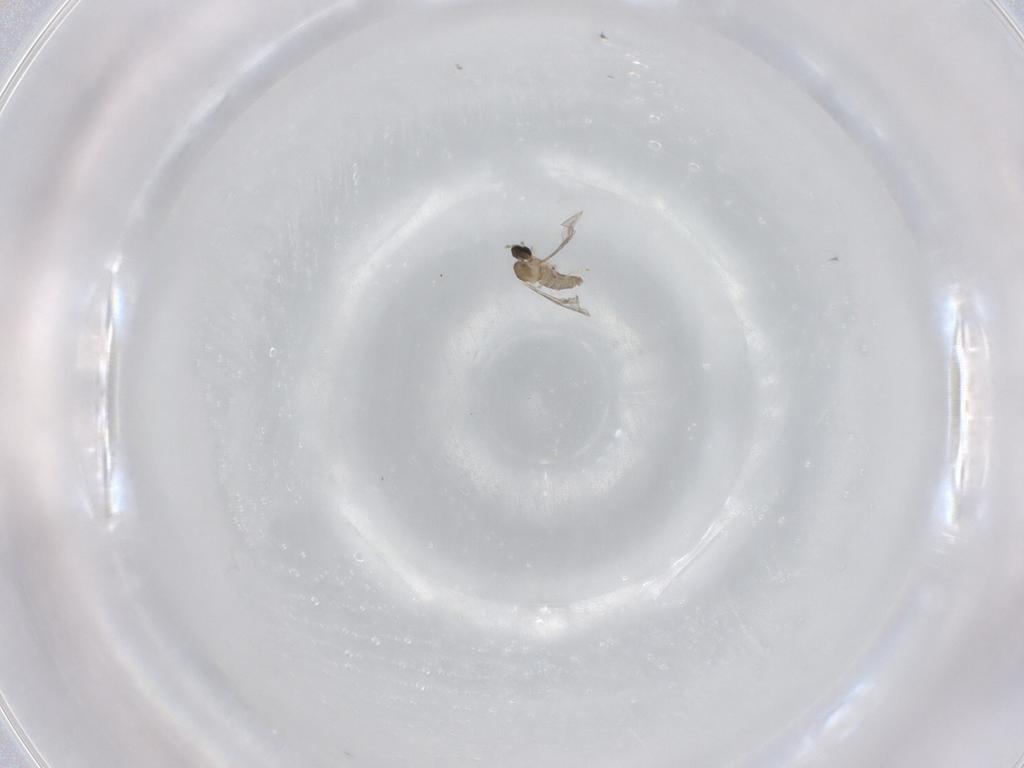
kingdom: Animalia
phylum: Arthropoda
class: Insecta
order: Diptera
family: Cecidomyiidae
